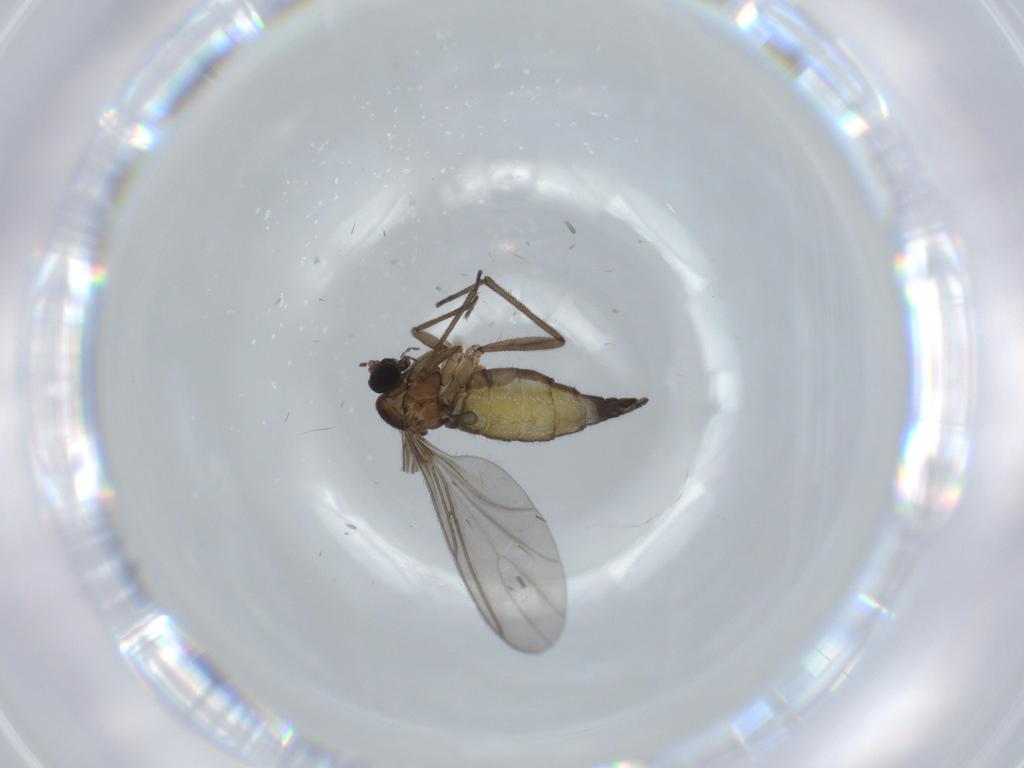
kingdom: Animalia
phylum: Arthropoda
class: Insecta
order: Diptera
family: Sciaridae
